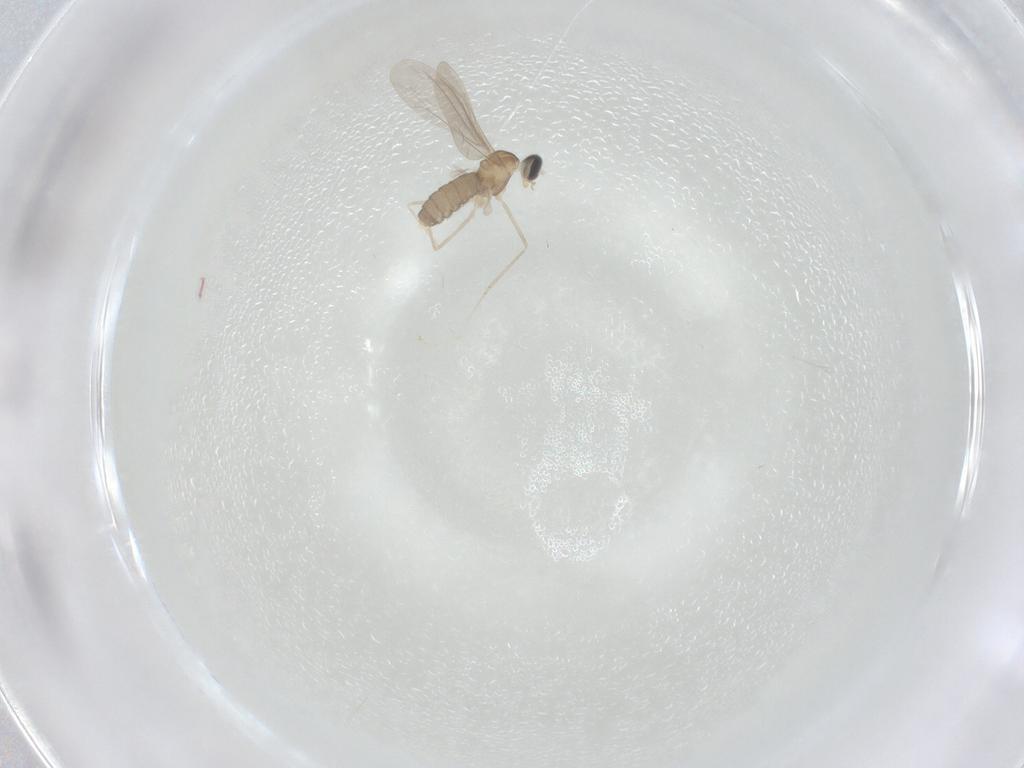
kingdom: Animalia
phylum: Arthropoda
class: Insecta
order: Diptera
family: Cecidomyiidae
